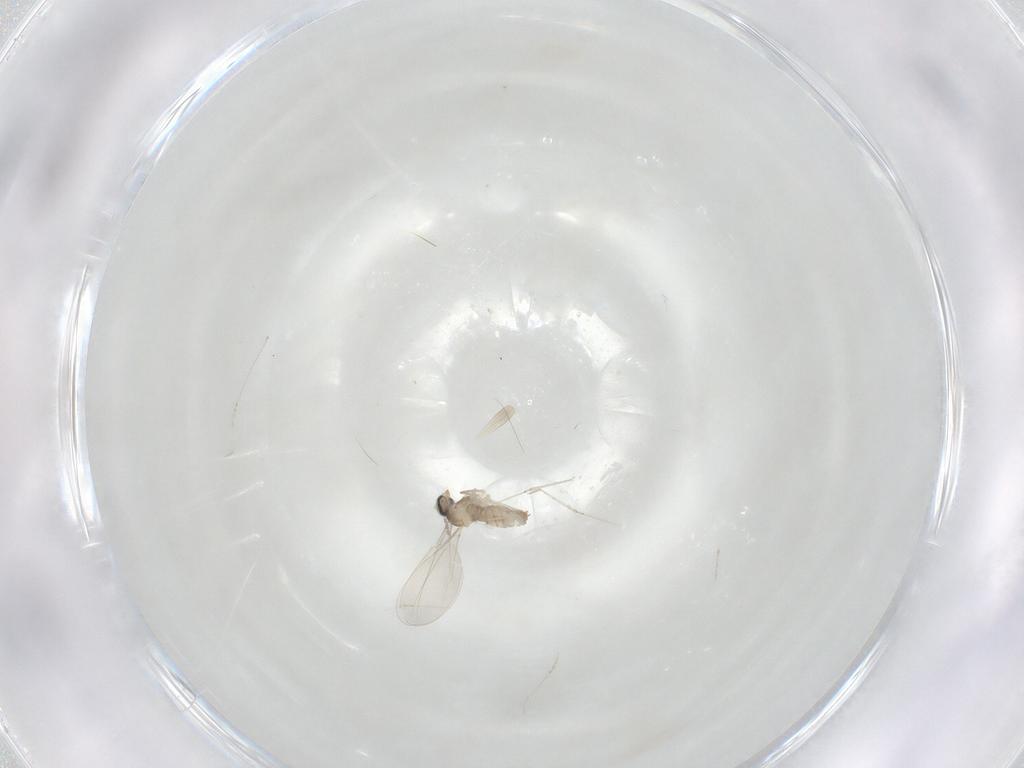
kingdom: Animalia
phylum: Arthropoda
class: Insecta
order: Diptera
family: Cecidomyiidae
